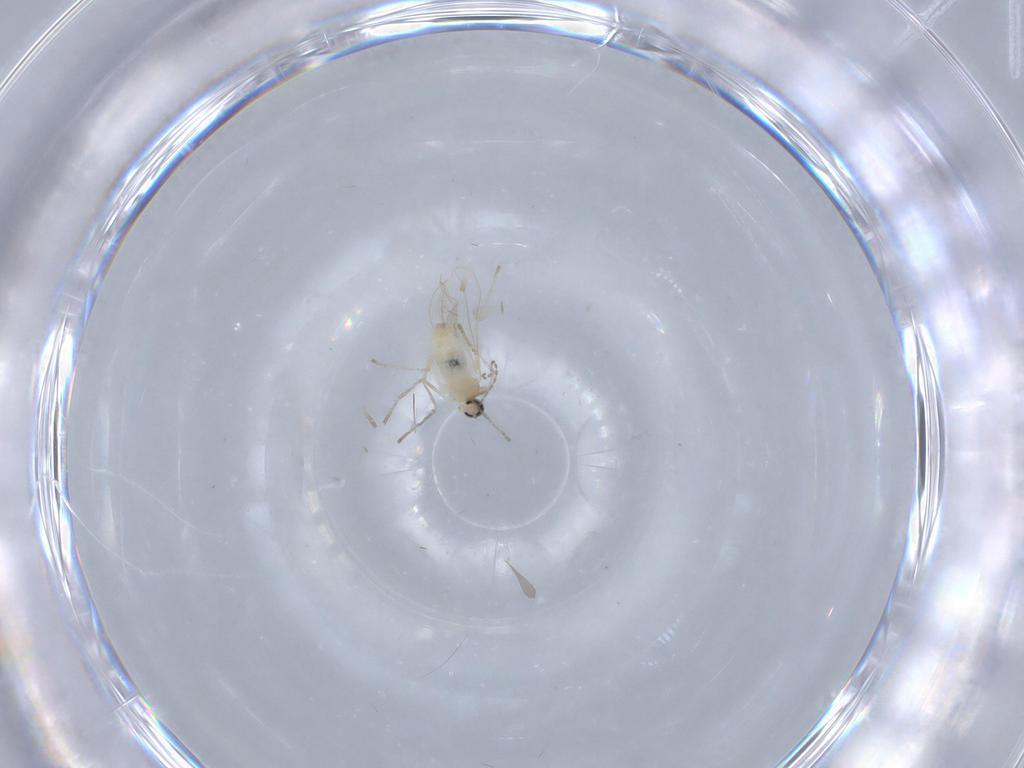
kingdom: Animalia
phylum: Arthropoda
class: Insecta
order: Diptera
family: Cecidomyiidae
